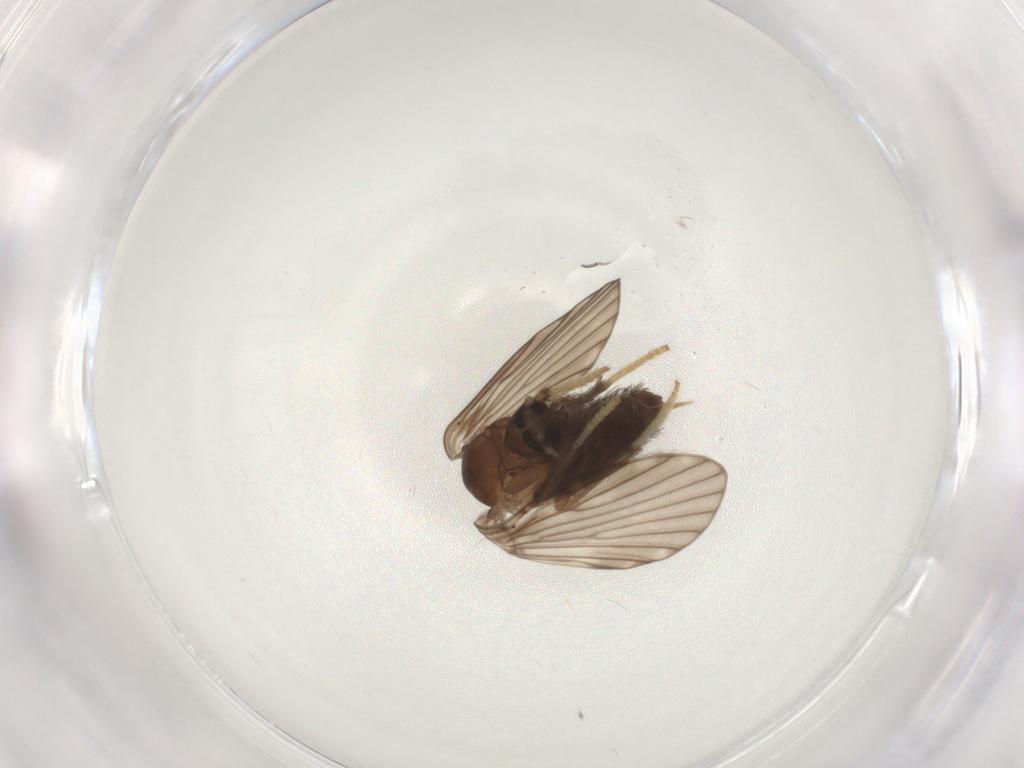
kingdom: Animalia
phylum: Arthropoda
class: Insecta
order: Diptera
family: Psychodidae
